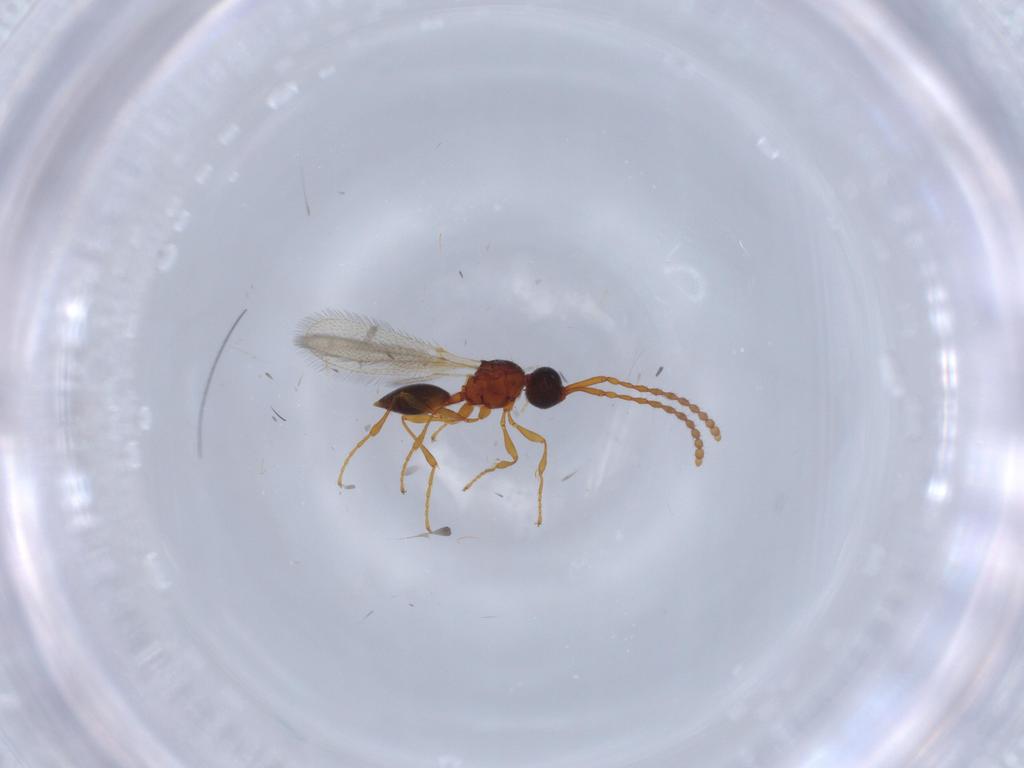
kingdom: Animalia
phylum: Arthropoda
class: Insecta
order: Hymenoptera
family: Diapriidae
